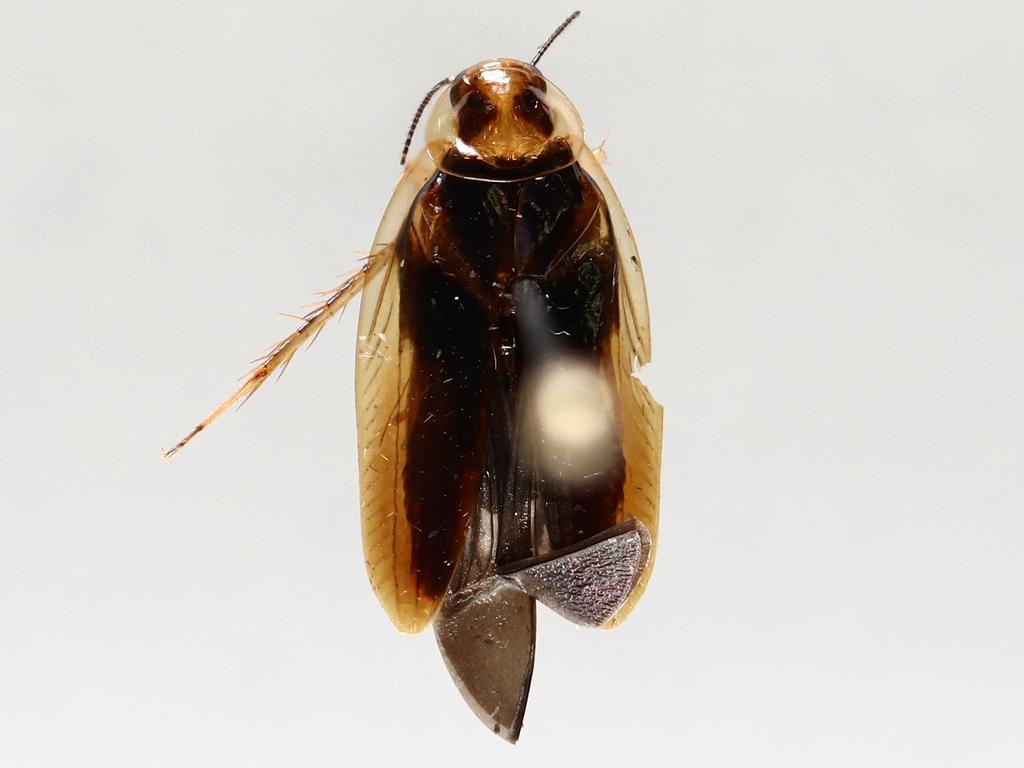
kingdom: Animalia
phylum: Arthropoda
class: Insecta
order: Diptera
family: Phoridae
